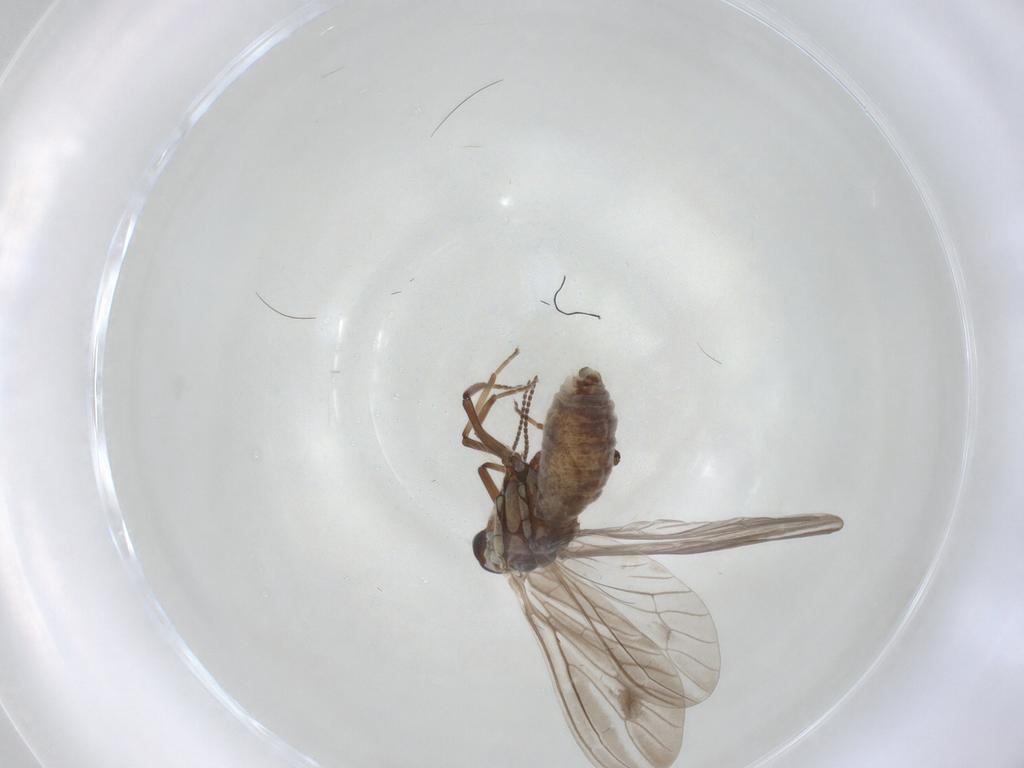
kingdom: Animalia
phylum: Arthropoda
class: Insecta
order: Neuroptera
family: Coniopterygidae
